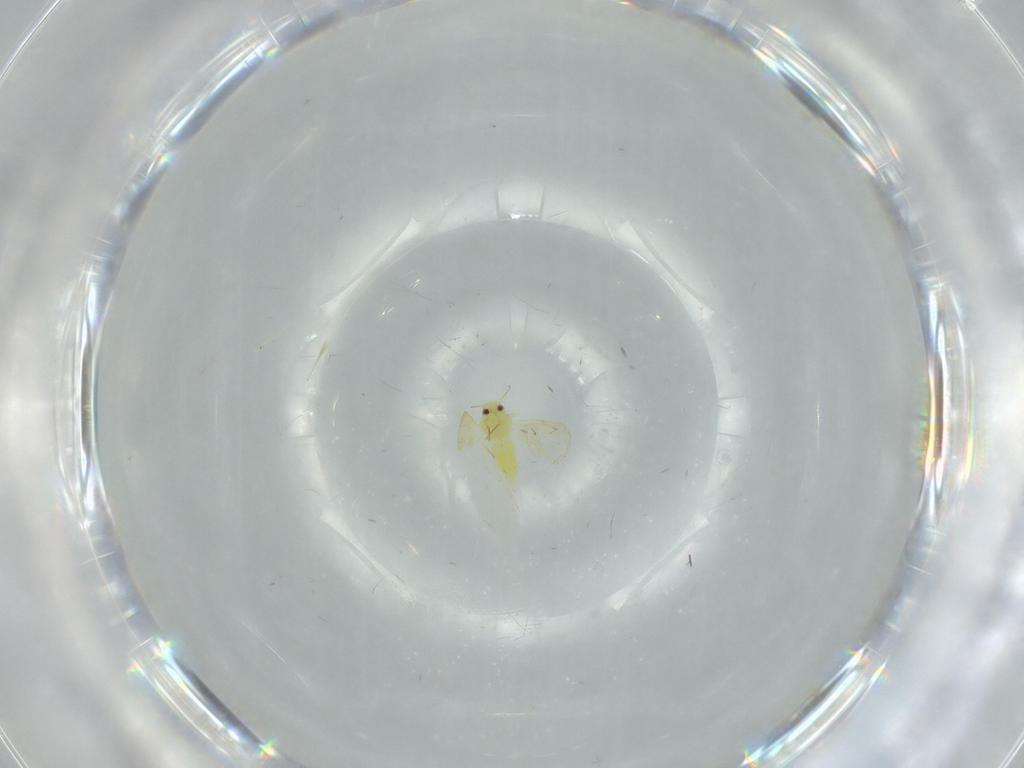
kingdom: Animalia
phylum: Arthropoda
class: Insecta
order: Hemiptera
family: Aleyrodidae
